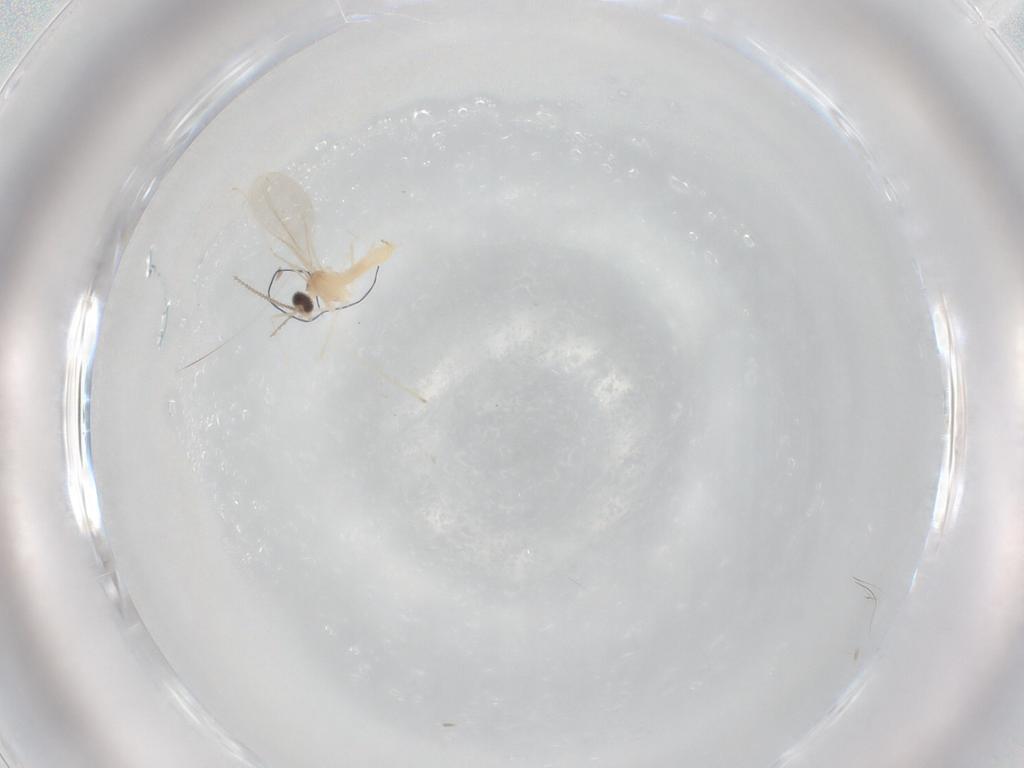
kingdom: Animalia
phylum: Arthropoda
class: Insecta
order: Diptera
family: Cecidomyiidae
